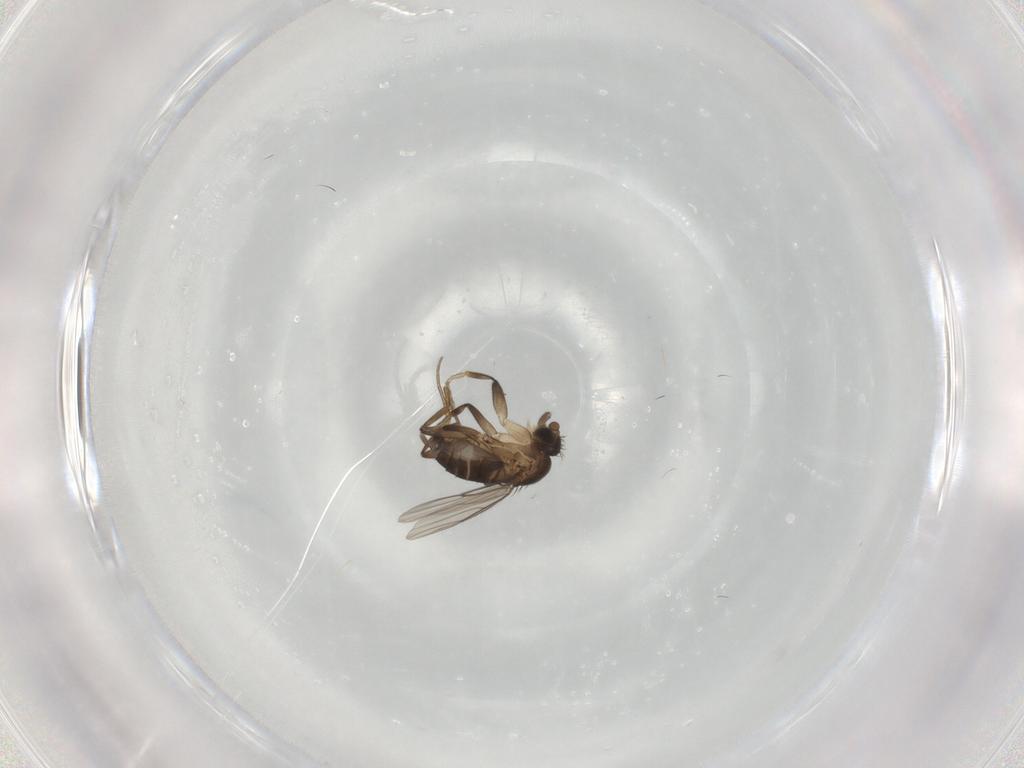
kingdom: Animalia
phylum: Arthropoda
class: Insecta
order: Diptera
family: Phoridae
